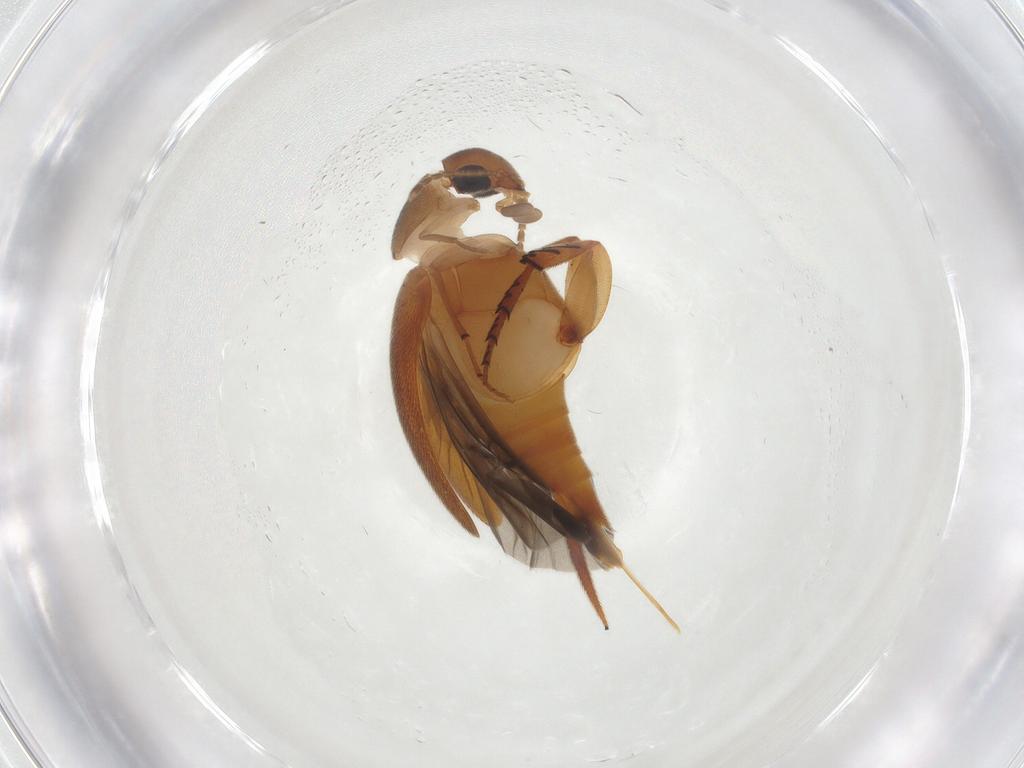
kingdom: Animalia
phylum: Arthropoda
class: Insecta
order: Coleoptera
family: Mordellidae
